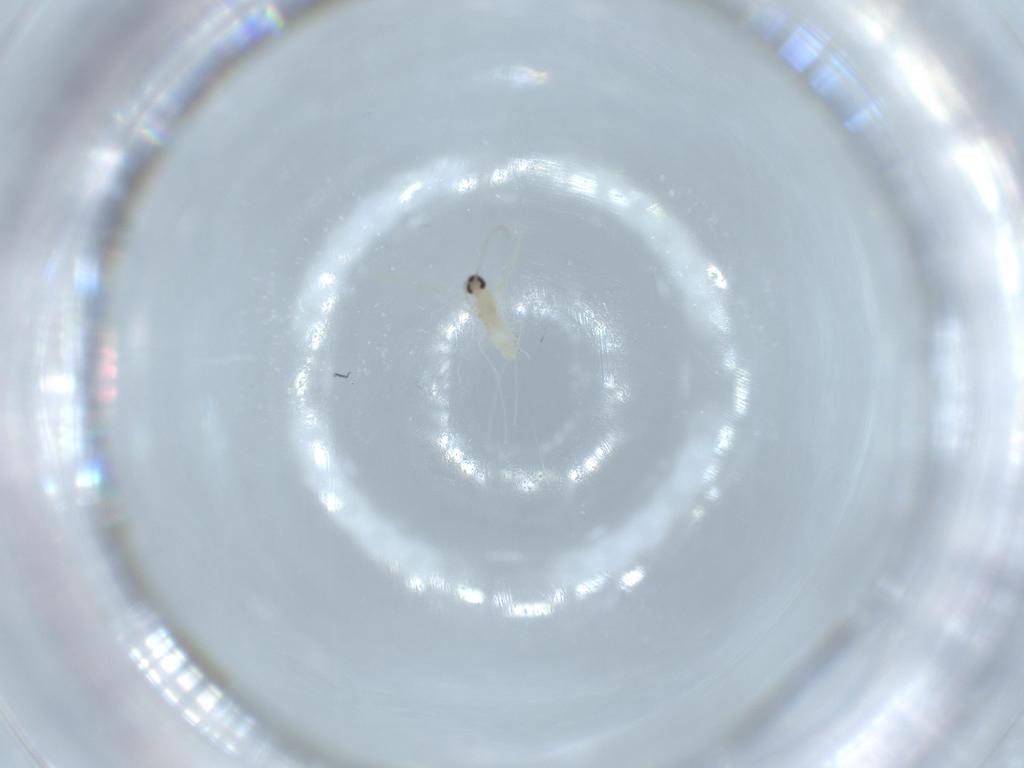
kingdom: Animalia
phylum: Arthropoda
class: Insecta
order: Diptera
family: Cecidomyiidae
